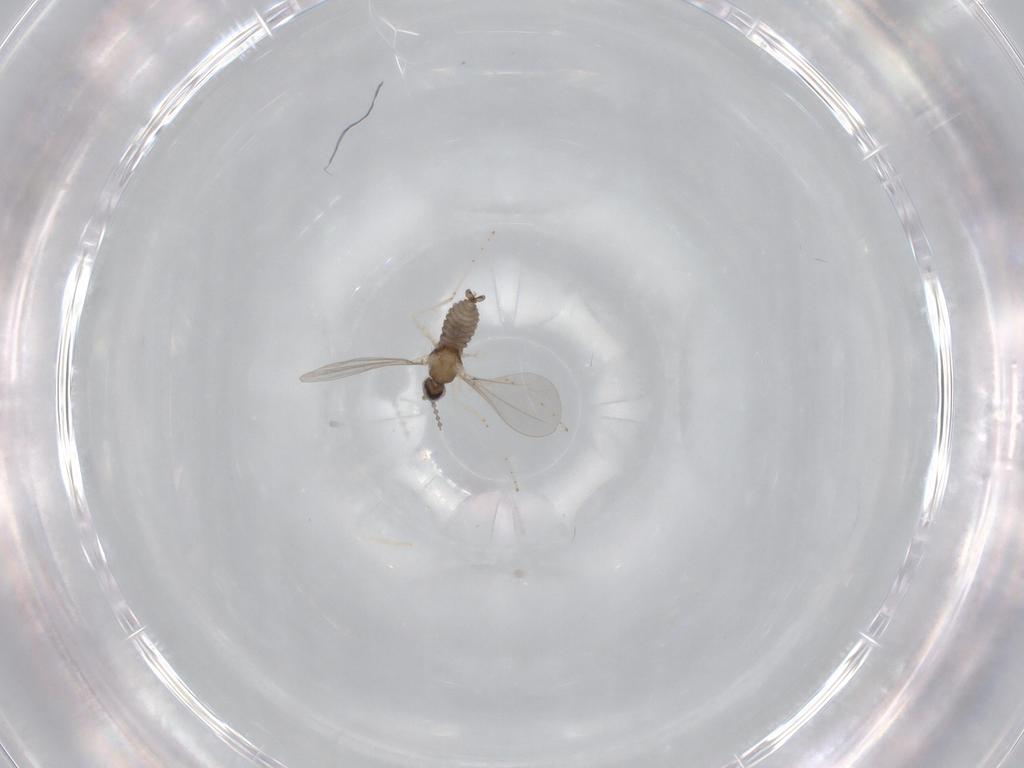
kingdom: Animalia
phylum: Arthropoda
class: Insecta
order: Diptera
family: Cecidomyiidae
